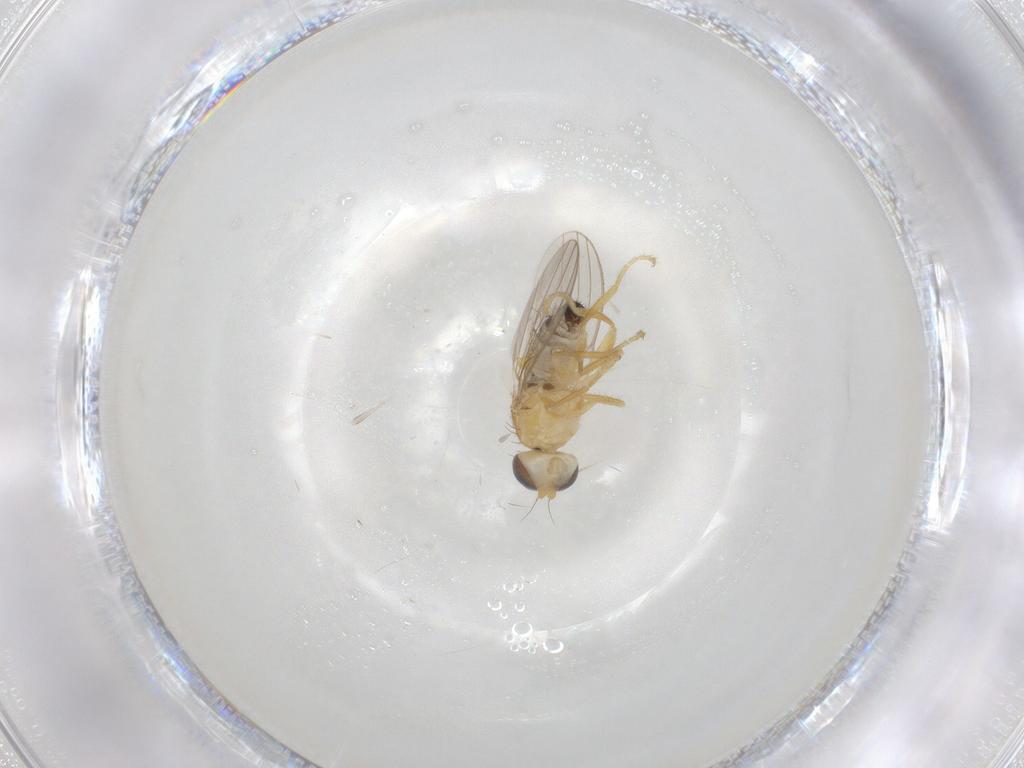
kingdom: Animalia
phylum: Arthropoda
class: Insecta
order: Diptera
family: Chyromyidae
